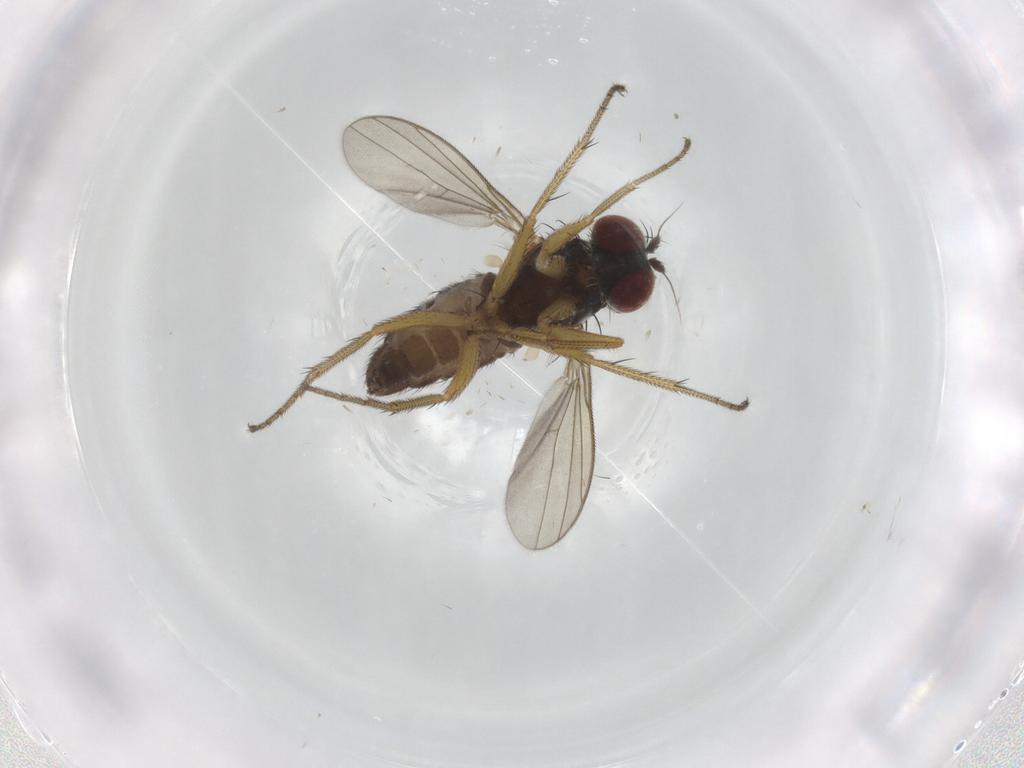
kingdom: Animalia
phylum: Arthropoda
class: Insecta
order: Diptera
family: Dolichopodidae
